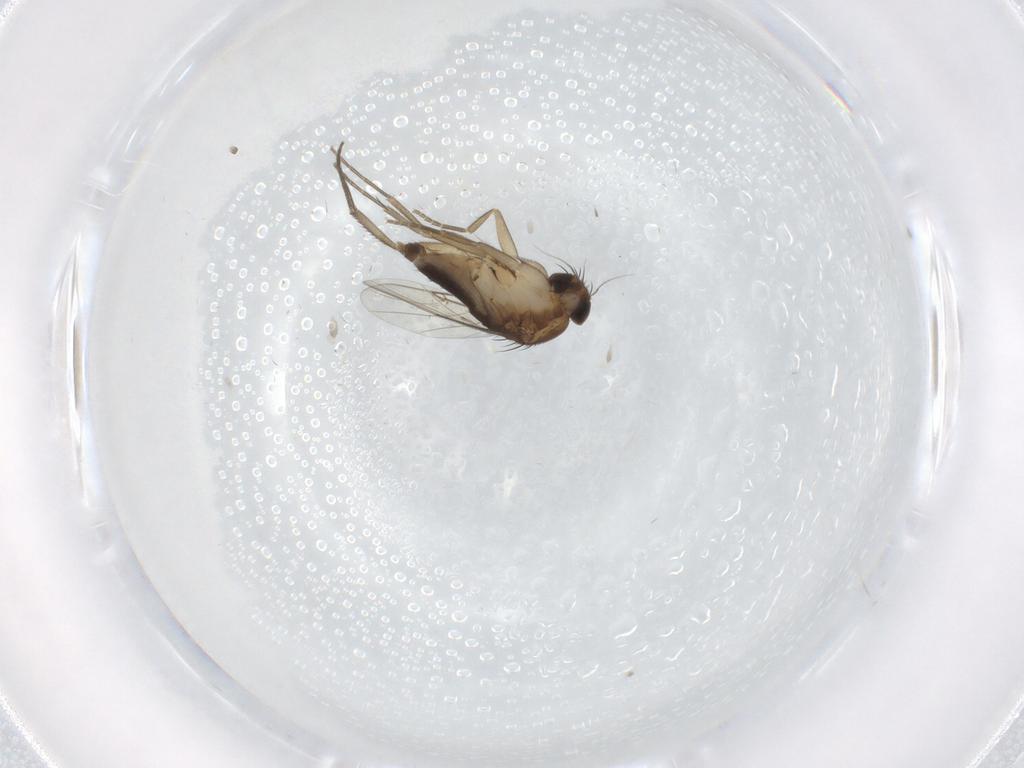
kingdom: Animalia
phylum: Arthropoda
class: Insecta
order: Diptera
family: Phoridae
